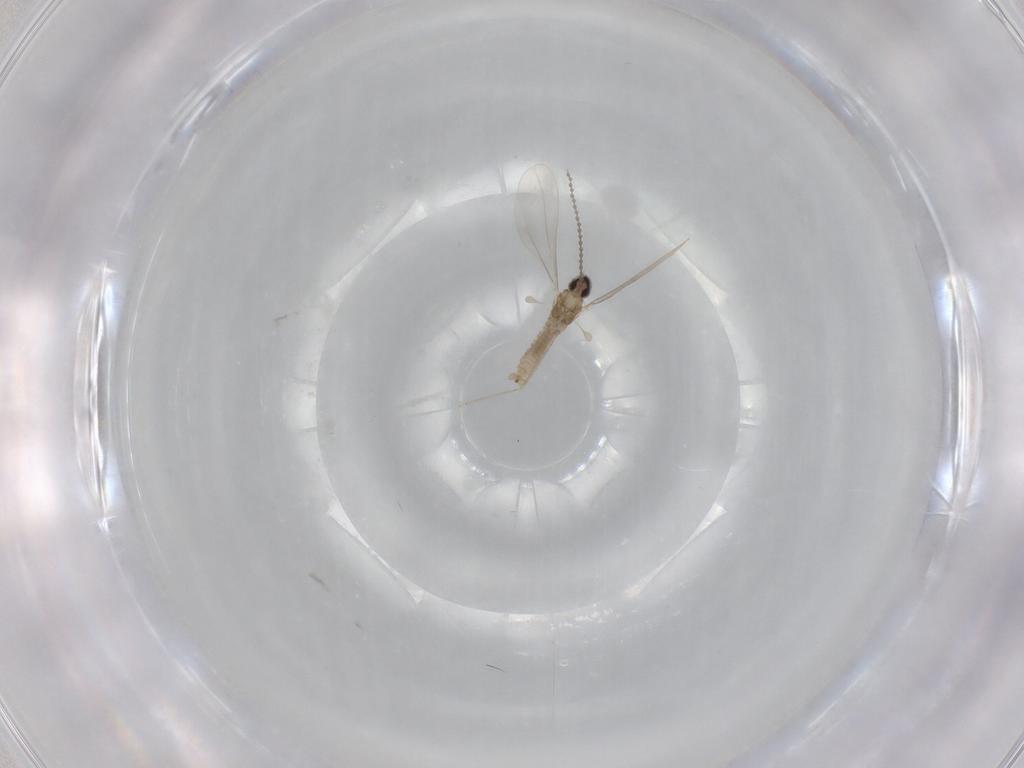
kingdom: Animalia
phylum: Arthropoda
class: Insecta
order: Diptera
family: Cecidomyiidae
